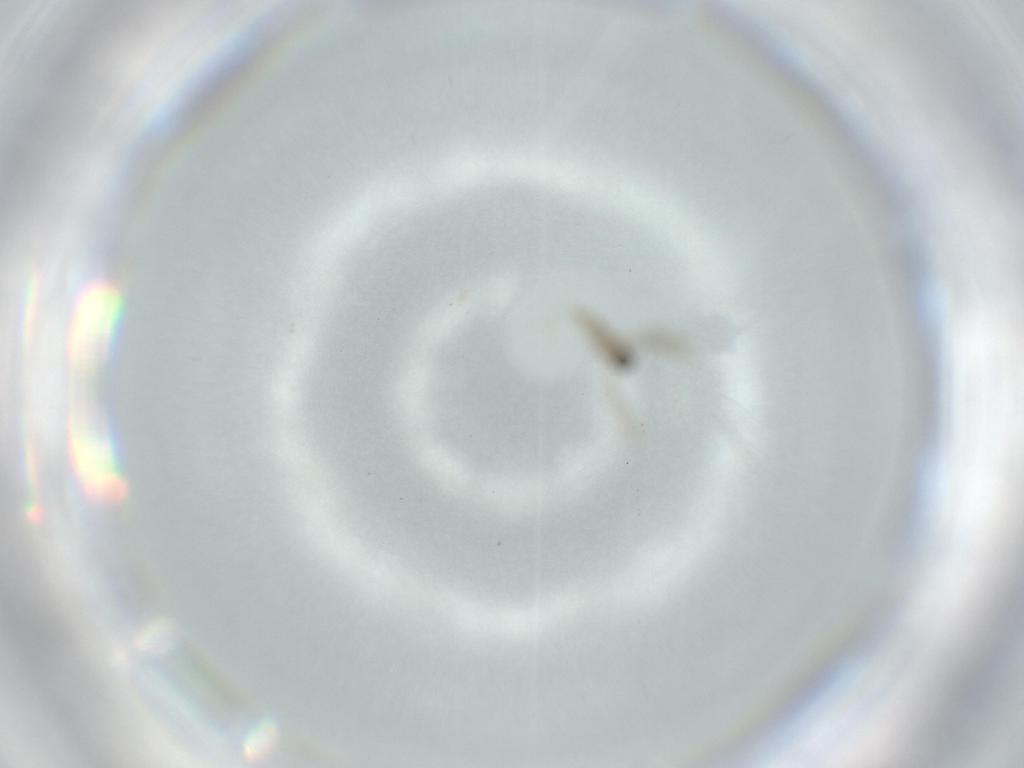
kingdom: Animalia
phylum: Arthropoda
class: Insecta
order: Diptera
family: Cecidomyiidae
